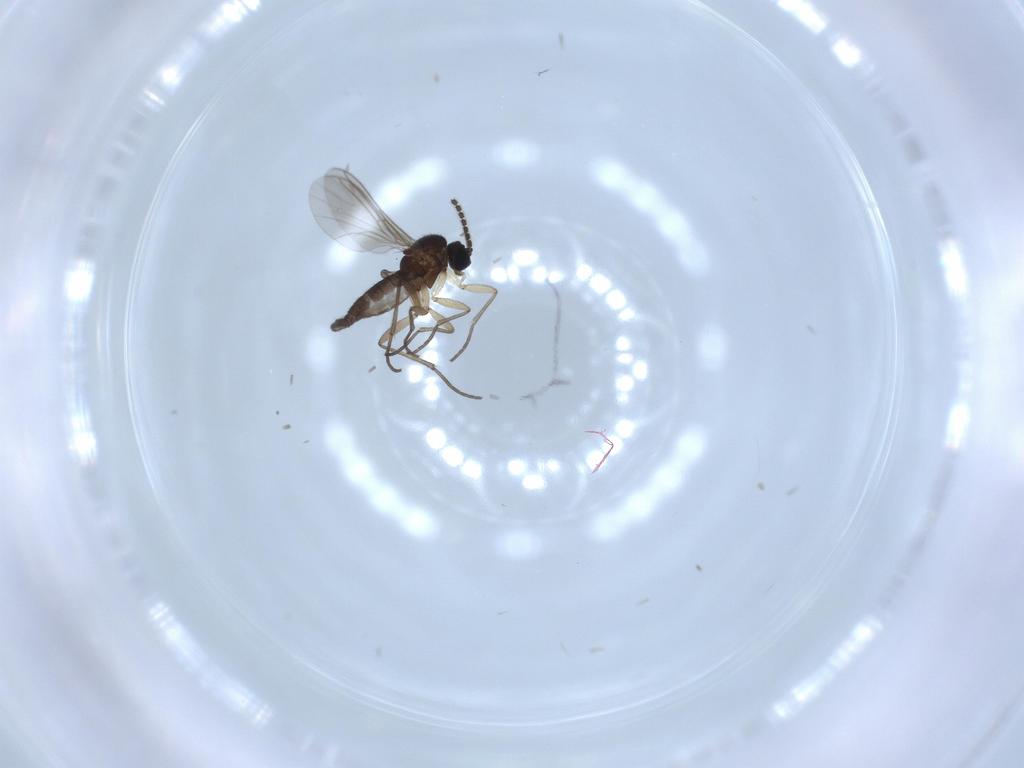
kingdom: Animalia
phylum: Arthropoda
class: Insecta
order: Diptera
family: Sciaridae
